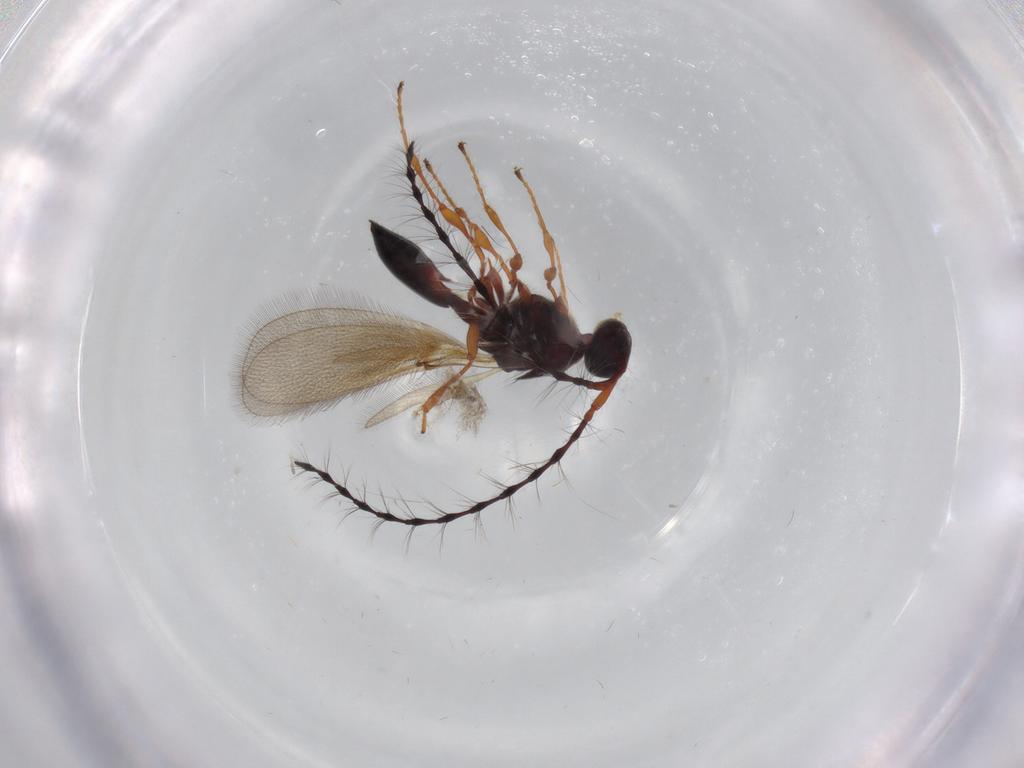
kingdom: Animalia
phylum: Arthropoda
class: Insecta
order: Hymenoptera
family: Diapriidae
